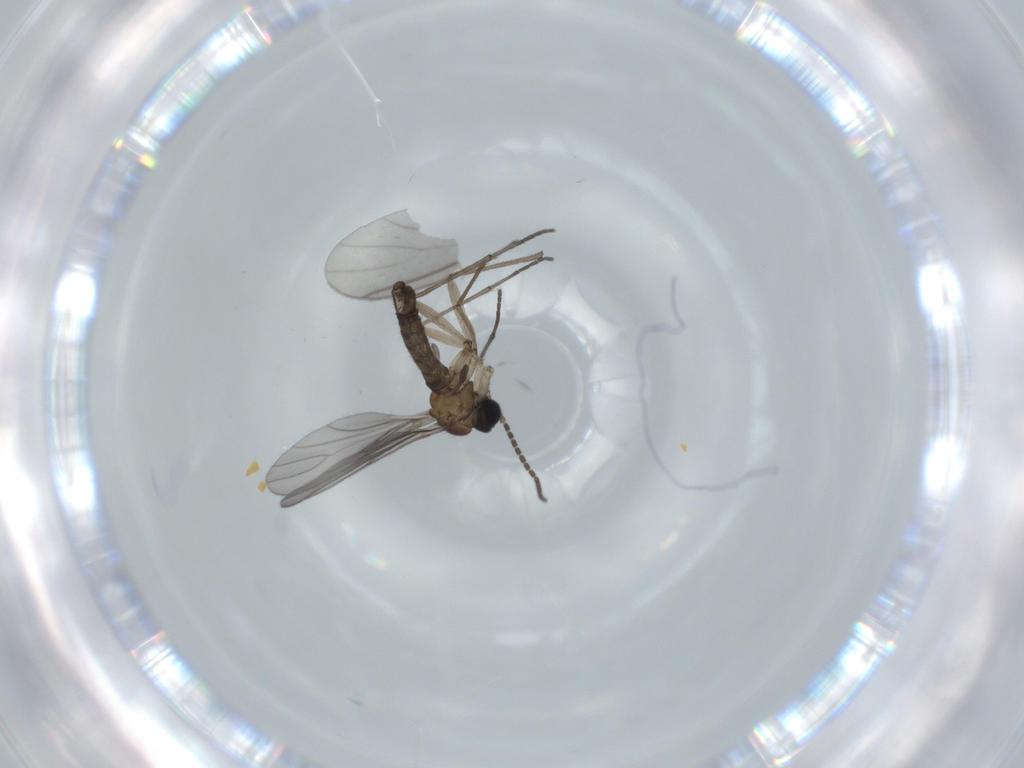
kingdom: Animalia
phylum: Arthropoda
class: Insecta
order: Diptera
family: Sciaridae
